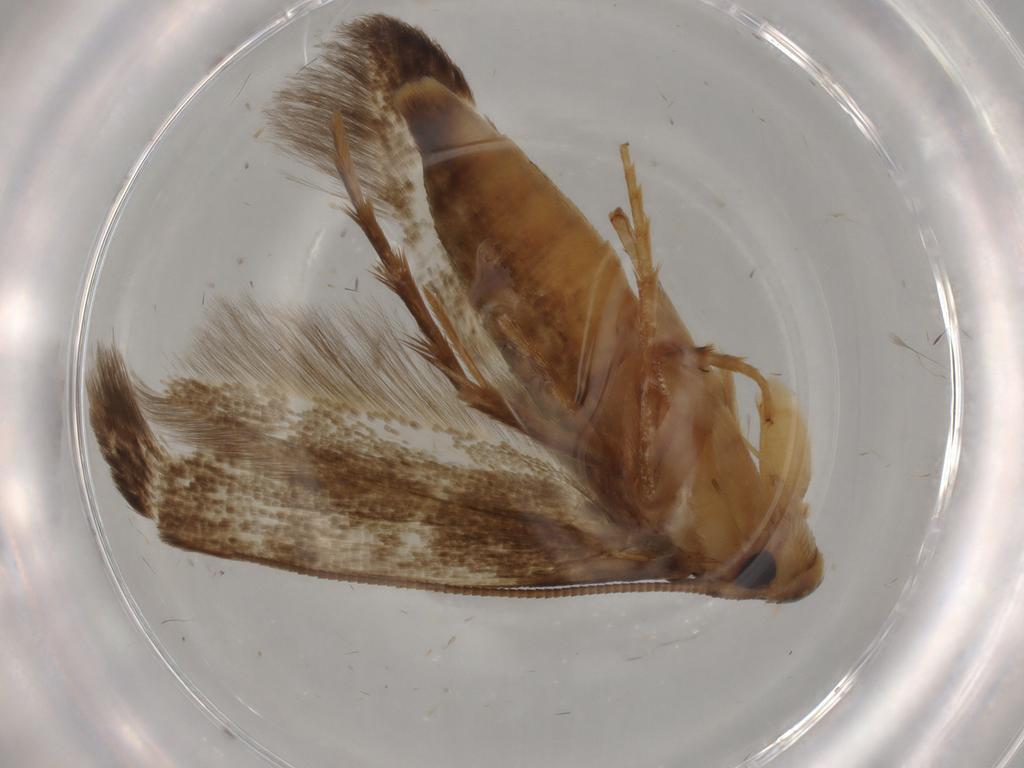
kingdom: Animalia
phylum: Arthropoda
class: Insecta
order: Lepidoptera
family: Tineidae
